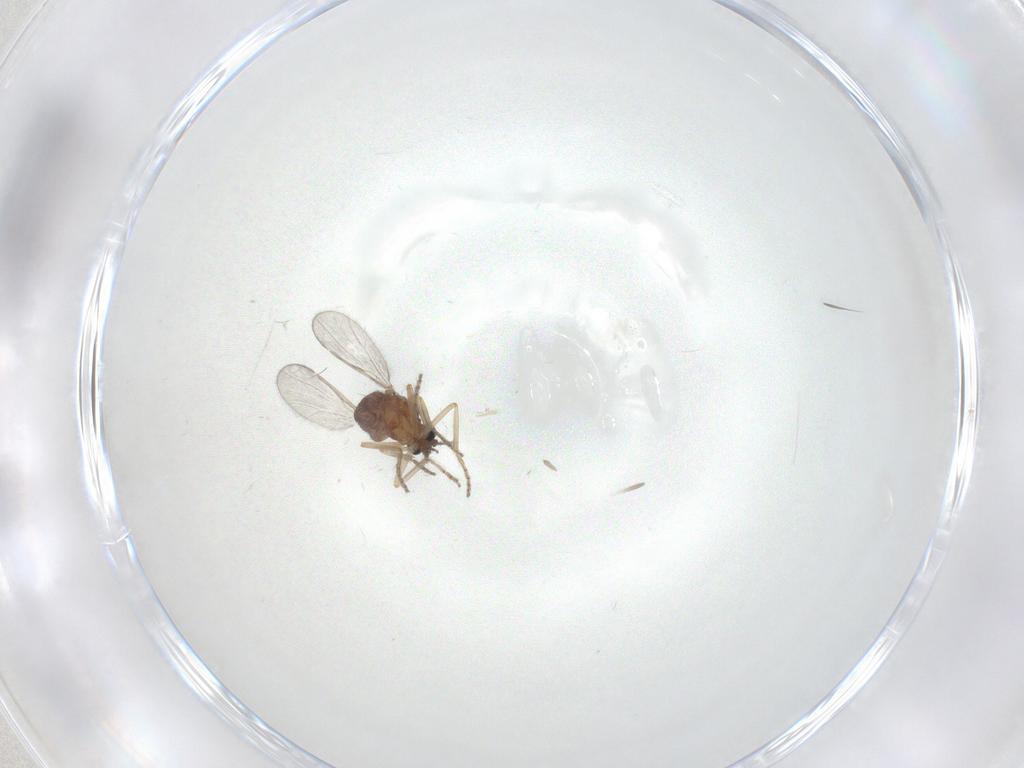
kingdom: Animalia
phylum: Arthropoda
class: Insecta
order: Diptera
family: Ceratopogonidae
